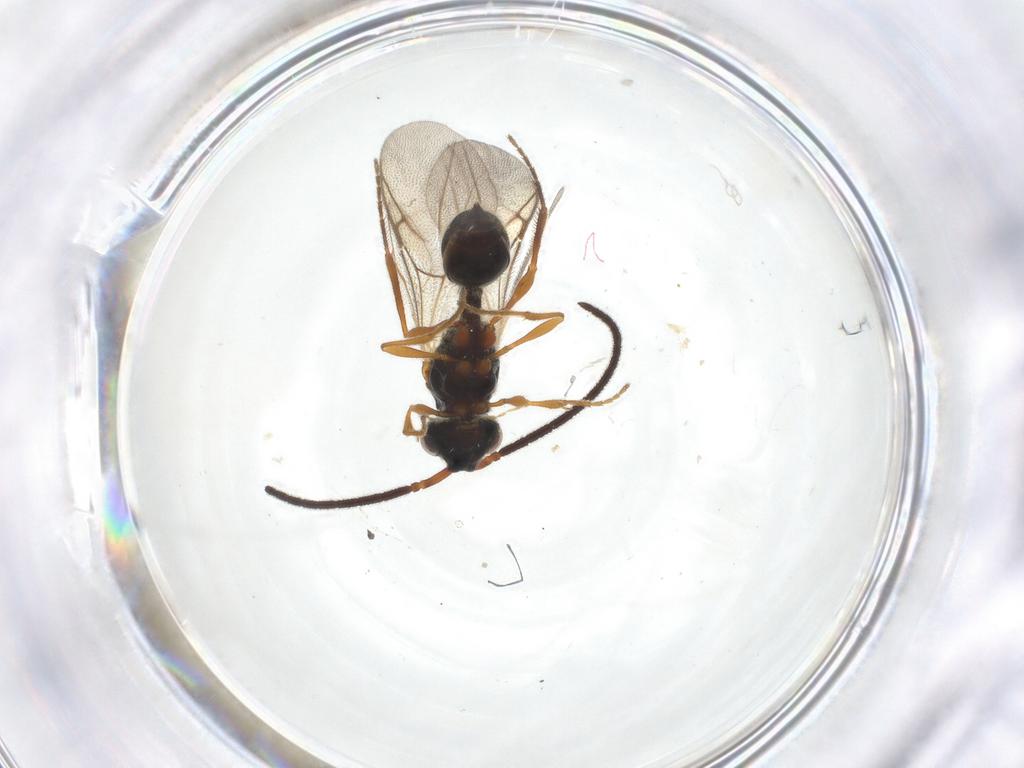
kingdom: Animalia
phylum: Arthropoda
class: Insecta
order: Hymenoptera
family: Diapriidae
